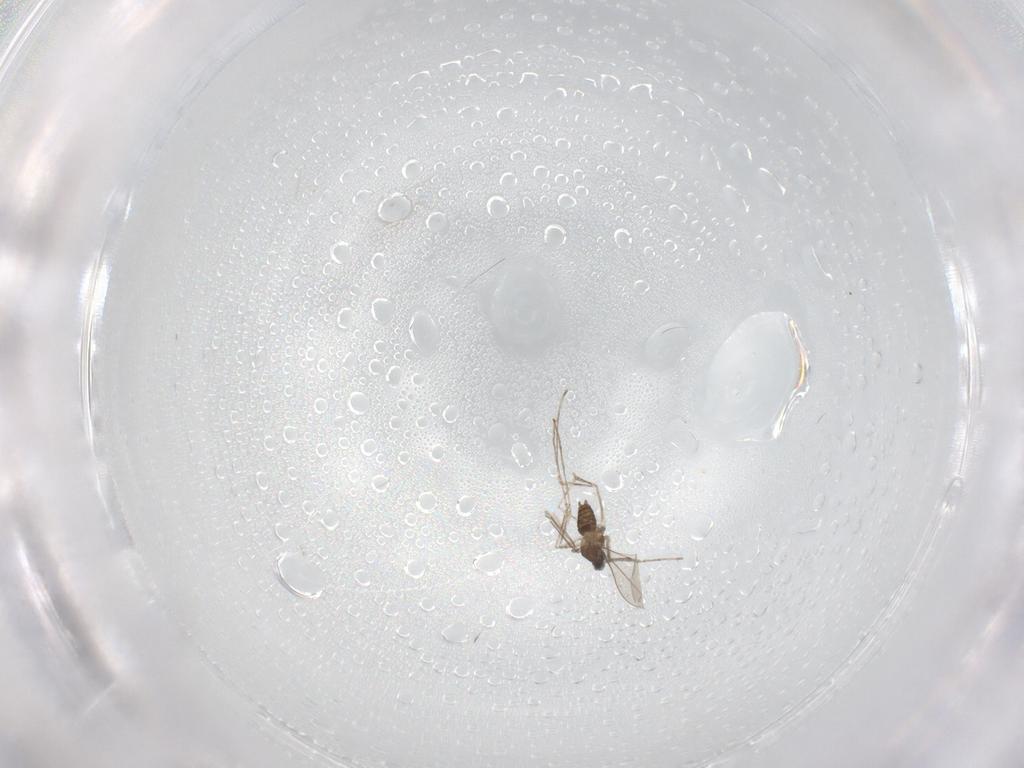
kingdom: Animalia
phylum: Arthropoda
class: Insecta
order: Diptera
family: Cecidomyiidae
